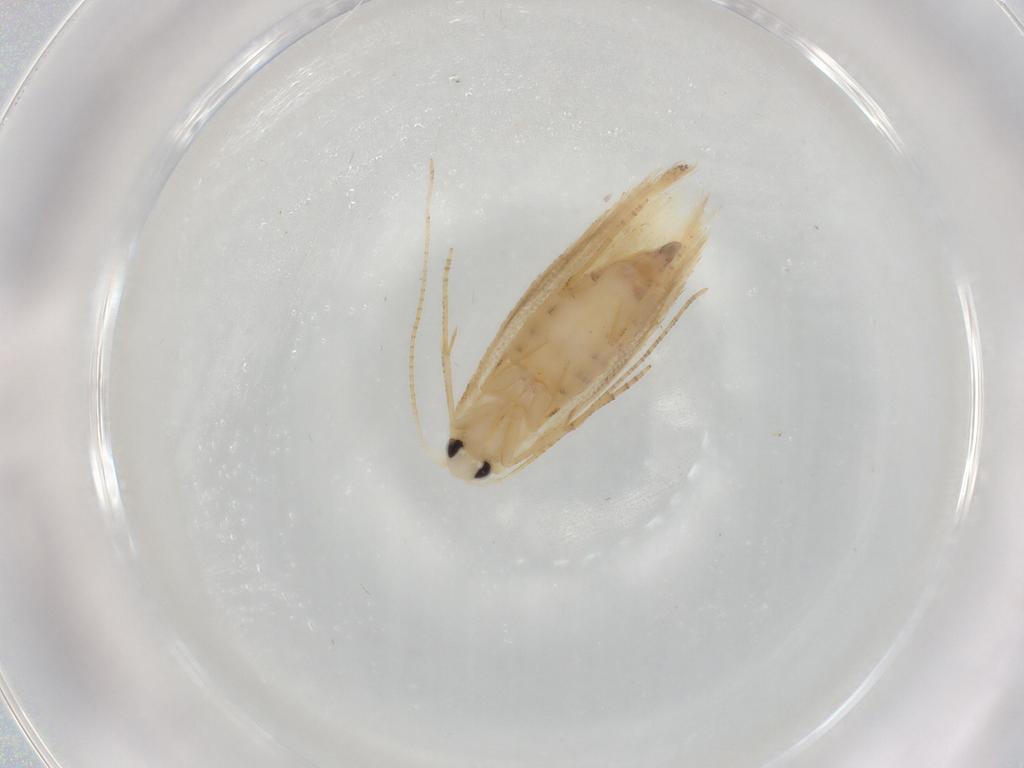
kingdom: Animalia
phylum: Arthropoda
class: Insecta
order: Lepidoptera
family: Bucculatricidae
